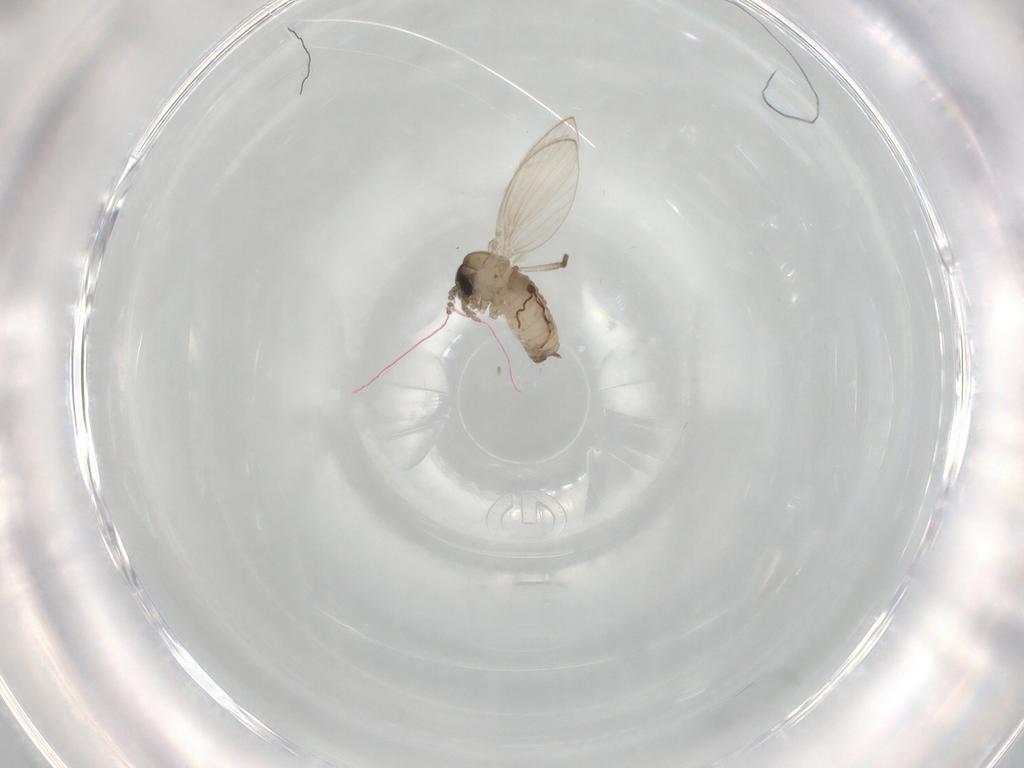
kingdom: Animalia
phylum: Arthropoda
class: Insecta
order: Diptera
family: Psychodidae
